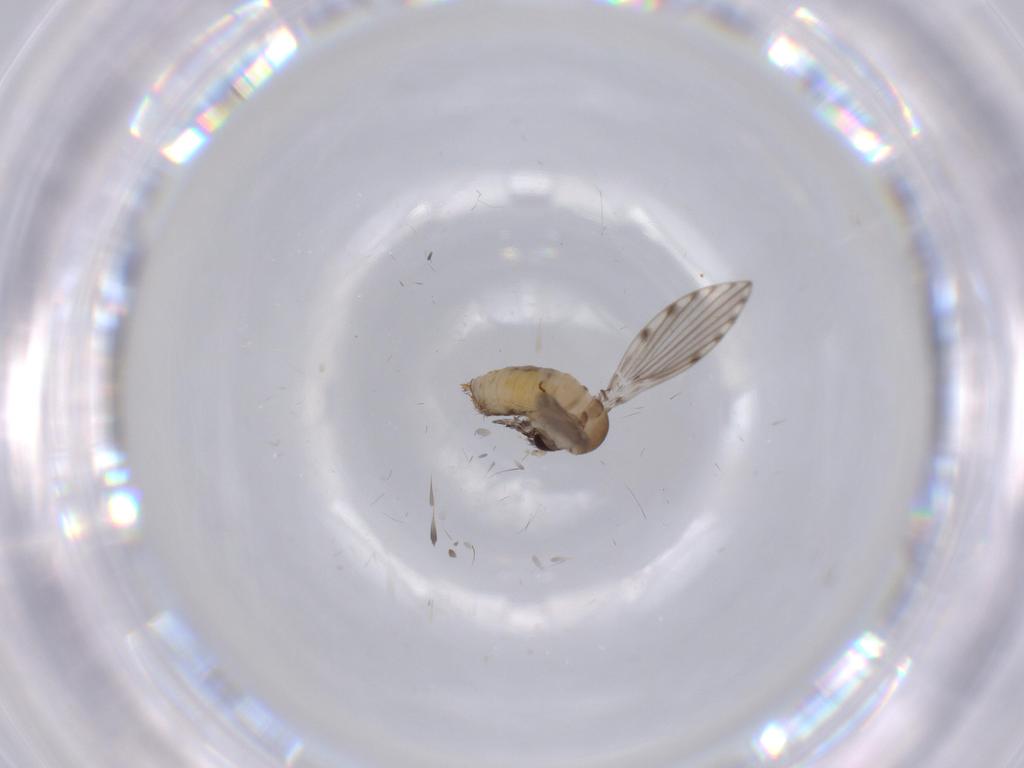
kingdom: Animalia
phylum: Arthropoda
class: Insecta
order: Diptera
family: Psychodidae
